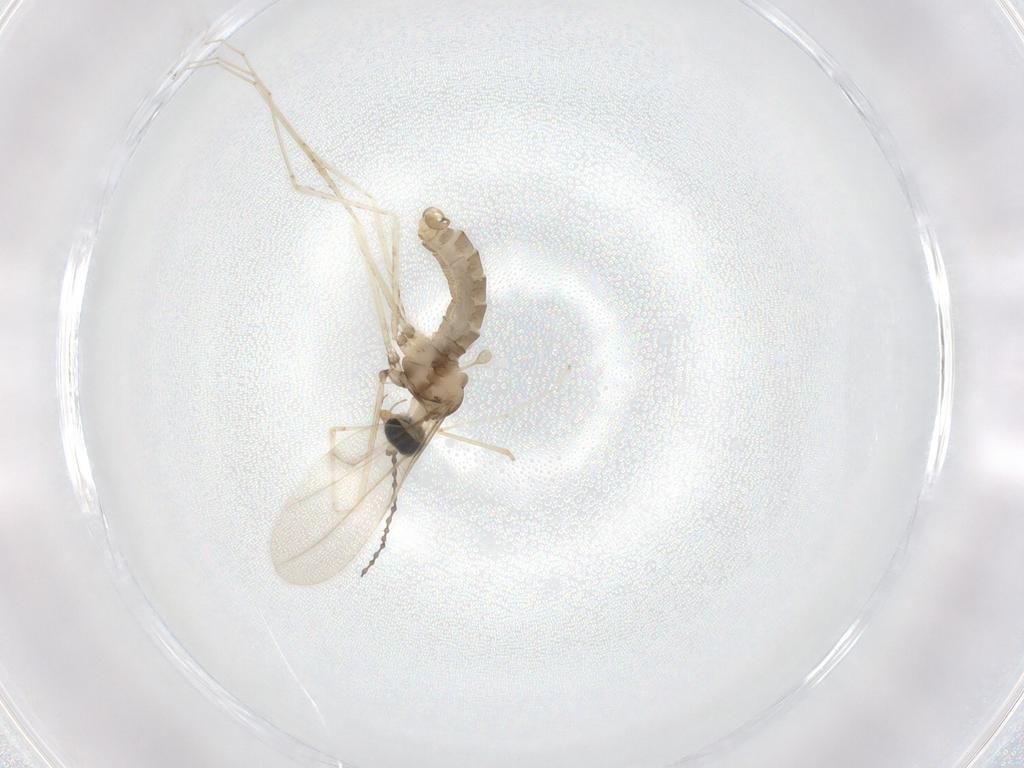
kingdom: Animalia
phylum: Arthropoda
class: Insecta
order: Diptera
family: Cecidomyiidae
